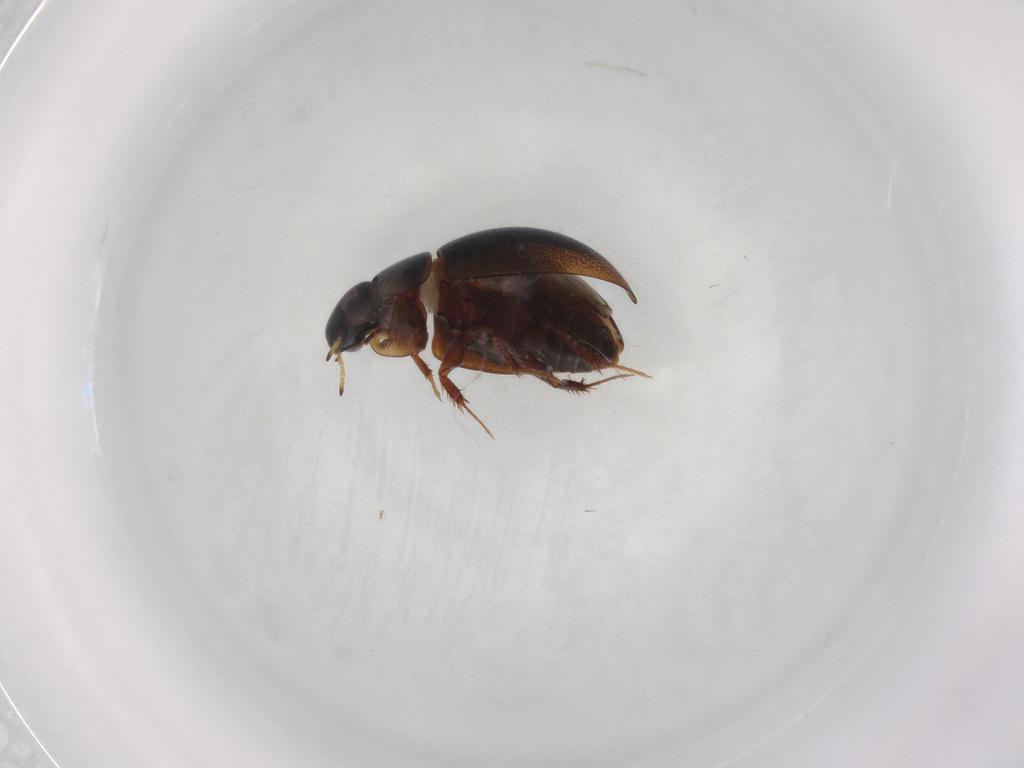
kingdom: Animalia
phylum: Arthropoda
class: Insecta
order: Coleoptera
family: Hydrophilidae
